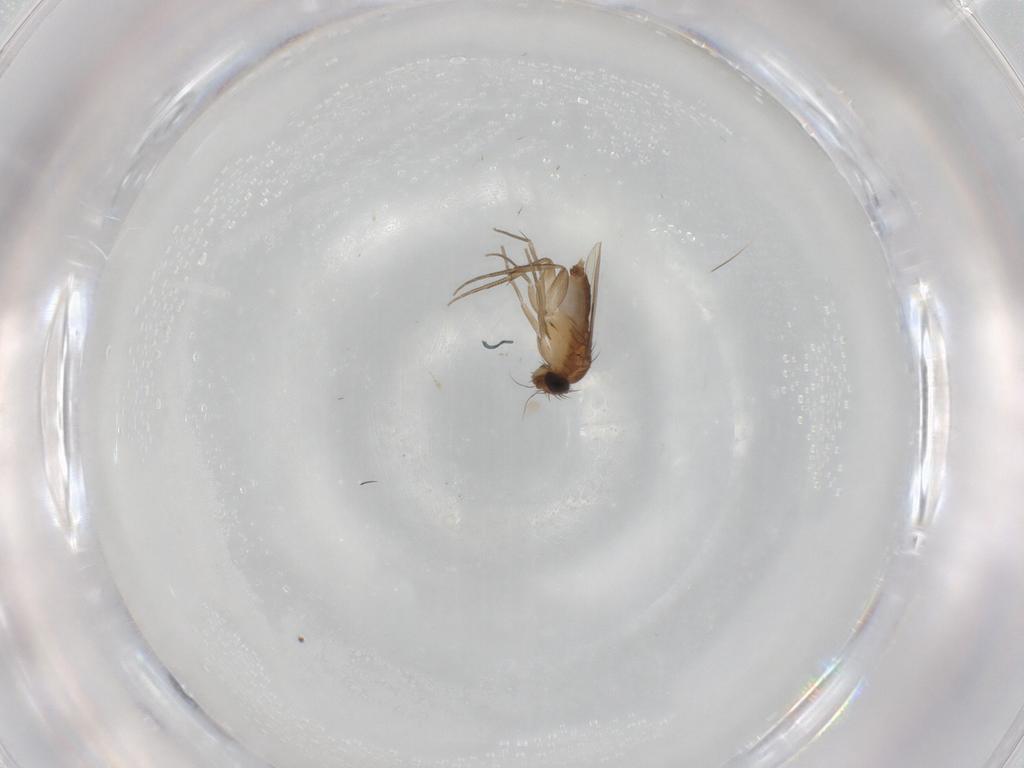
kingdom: Animalia
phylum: Arthropoda
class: Insecta
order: Diptera
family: Phoridae
